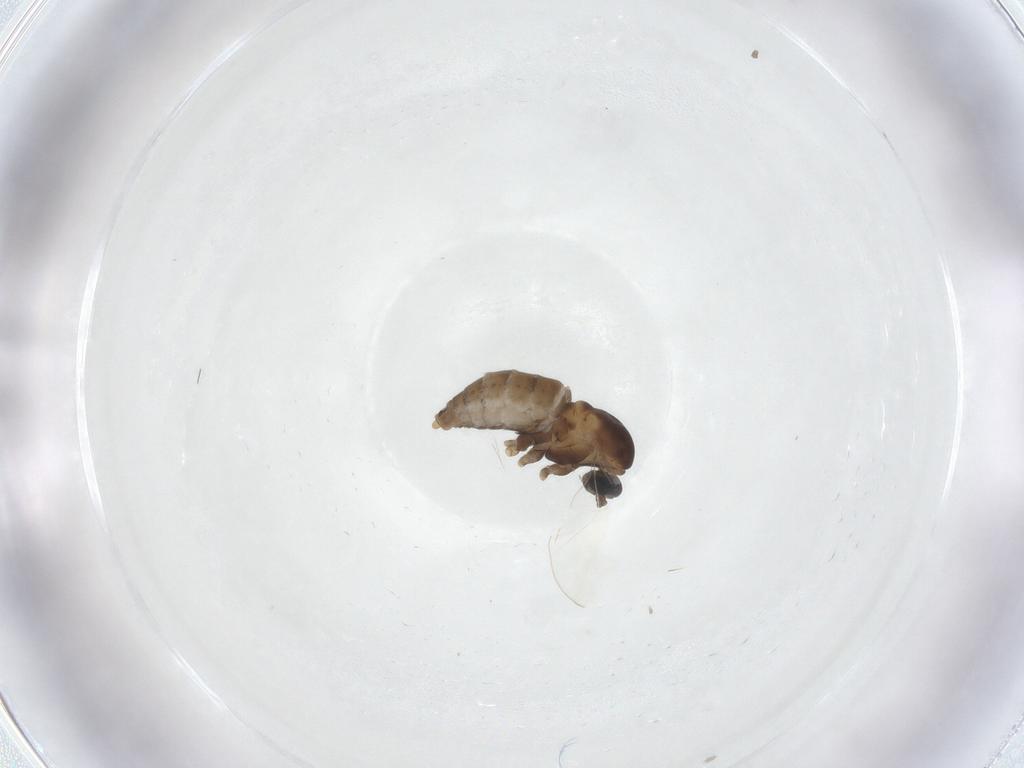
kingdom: Animalia
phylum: Arthropoda
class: Insecta
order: Diptera
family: Cecidomyiidae
